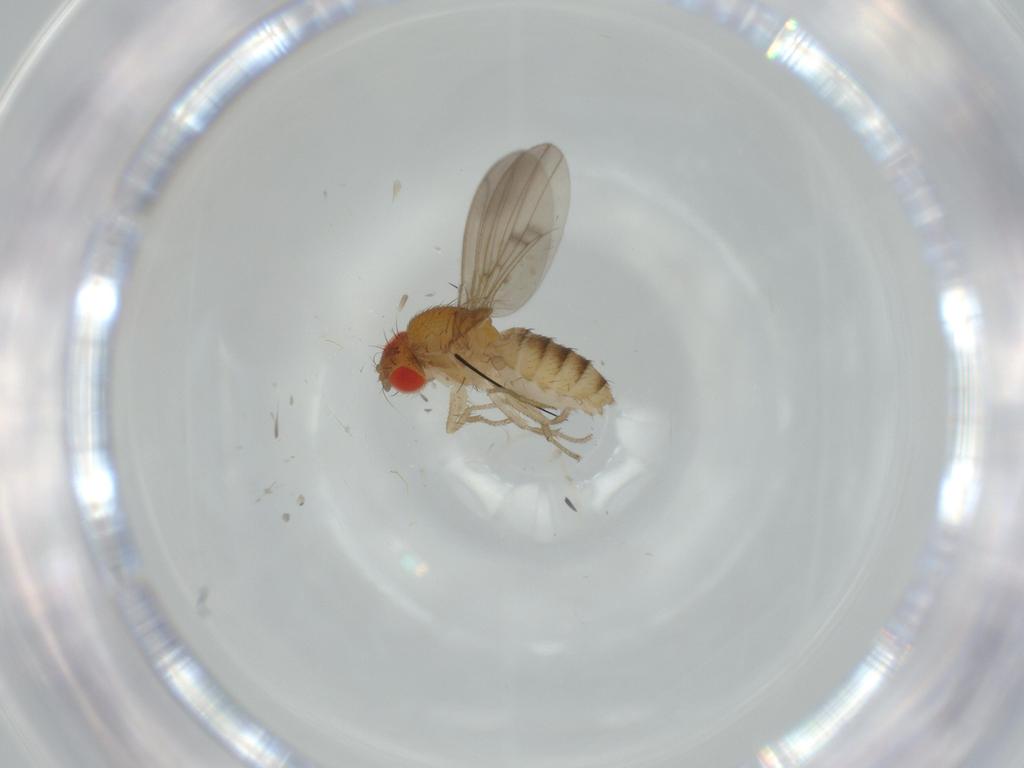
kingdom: Animalia
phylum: Arthropoda
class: Insecta
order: Diptera
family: Drosophilidae
